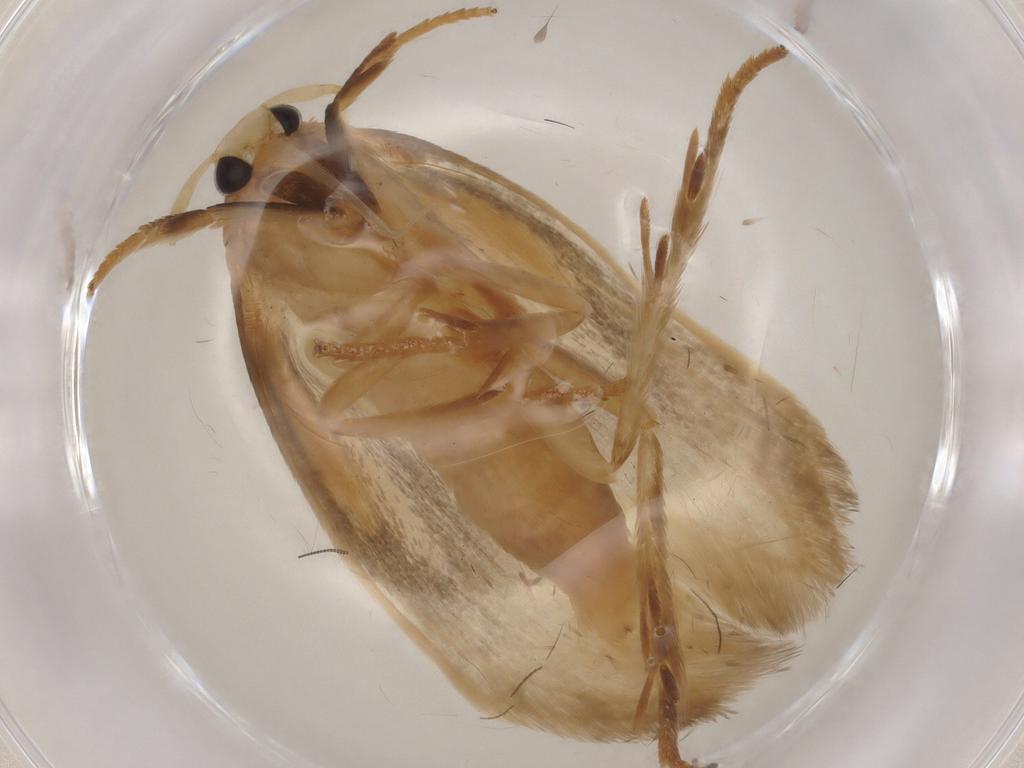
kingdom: Animalia
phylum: Arthropoda
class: Insecta
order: Lepidoptera
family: Geometridae
